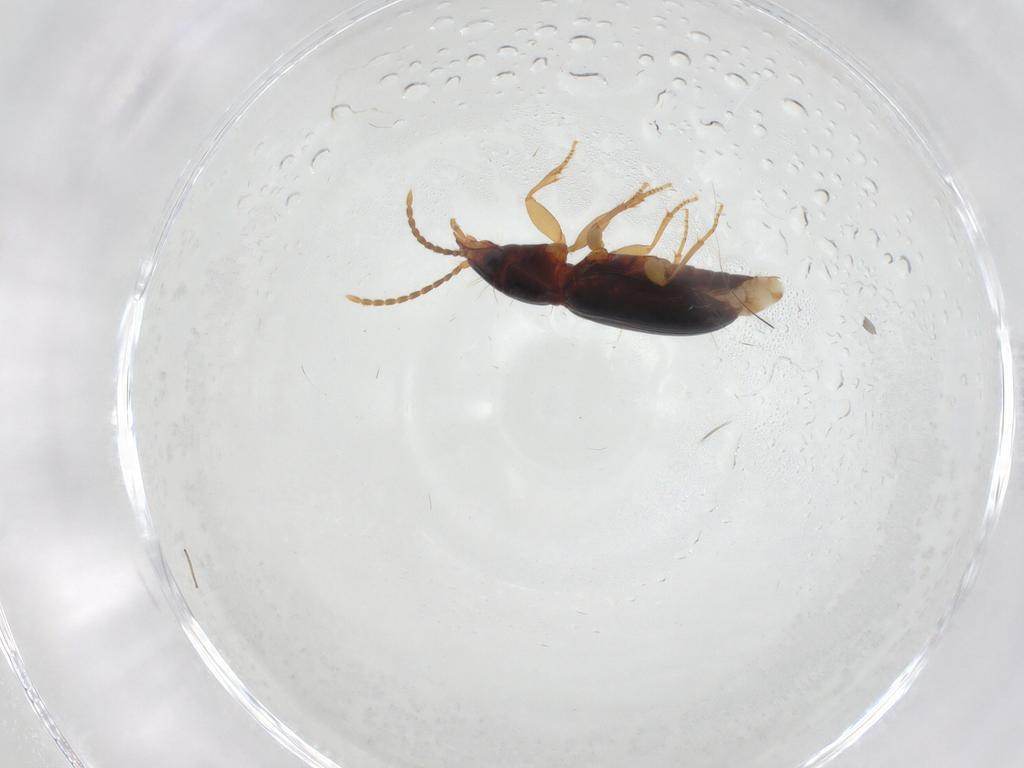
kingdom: Animalia
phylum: Arthropoda
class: Insecta
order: Coleoptera
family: Carabidae
